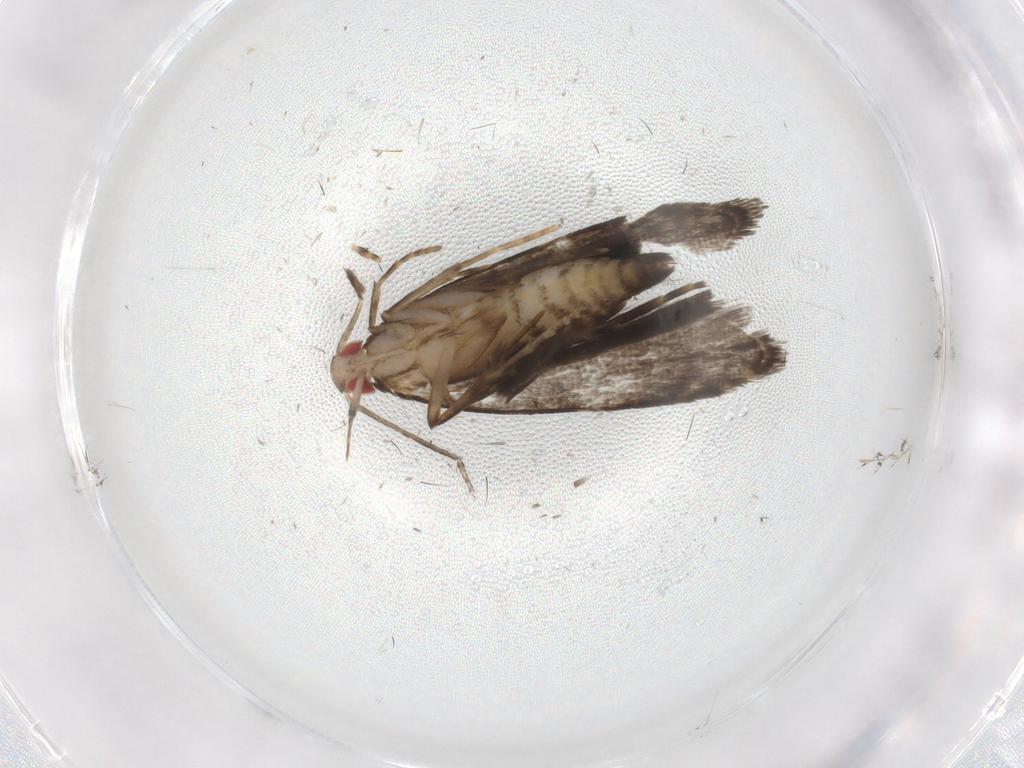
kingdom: Animalia
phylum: Arthropoda
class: Insecta
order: Lepidoptera
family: Gelechiidae
